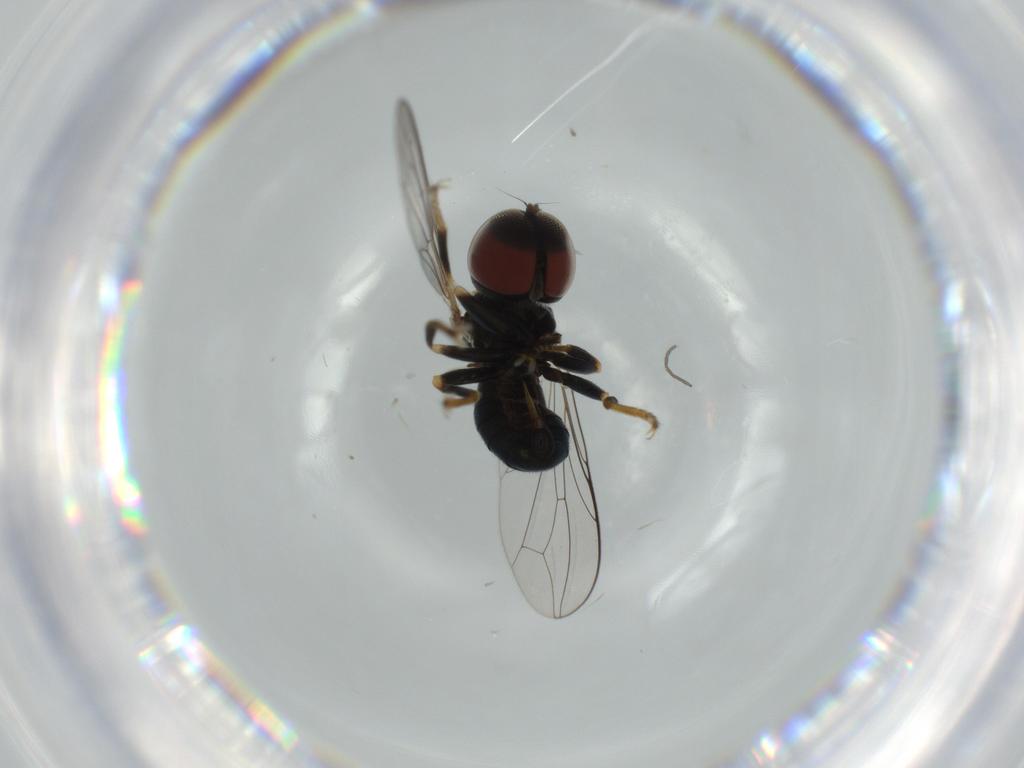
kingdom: Animalia
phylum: Arthropoda
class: Insecta
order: Diptera
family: Pipunculidae
